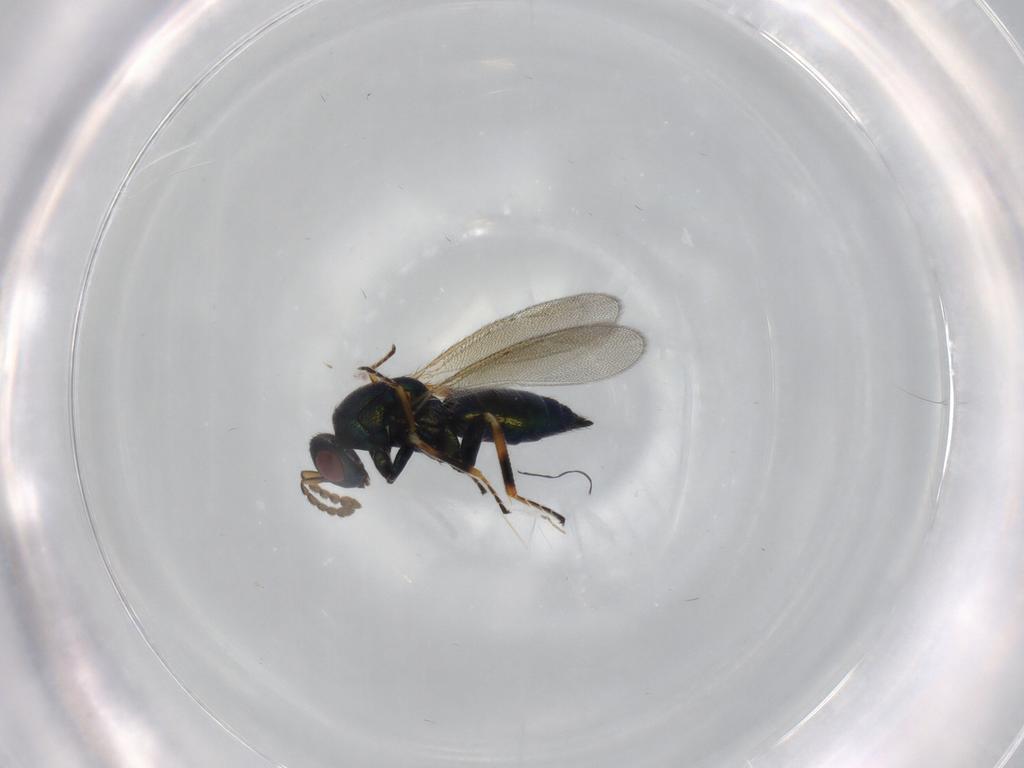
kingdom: Animalia
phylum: Arthropoda
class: Insecta
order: Hymenoptera
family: Eulophidae
